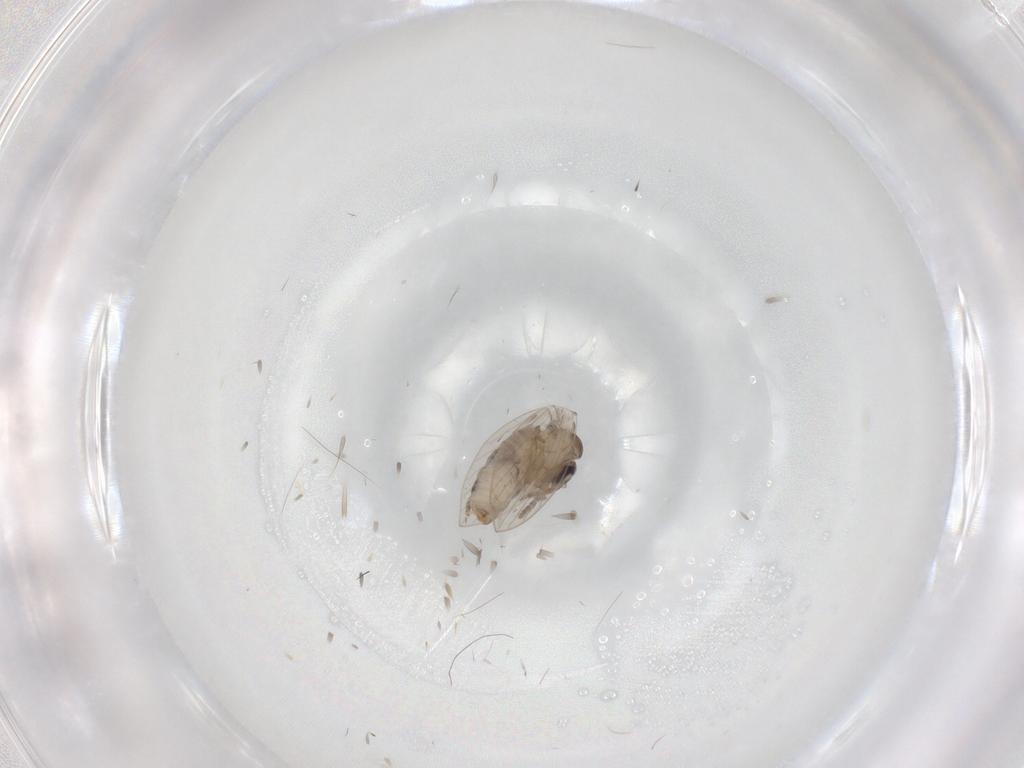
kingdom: Animalia
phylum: Arthropoda
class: Insecta
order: Diptera
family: Psychodidae
